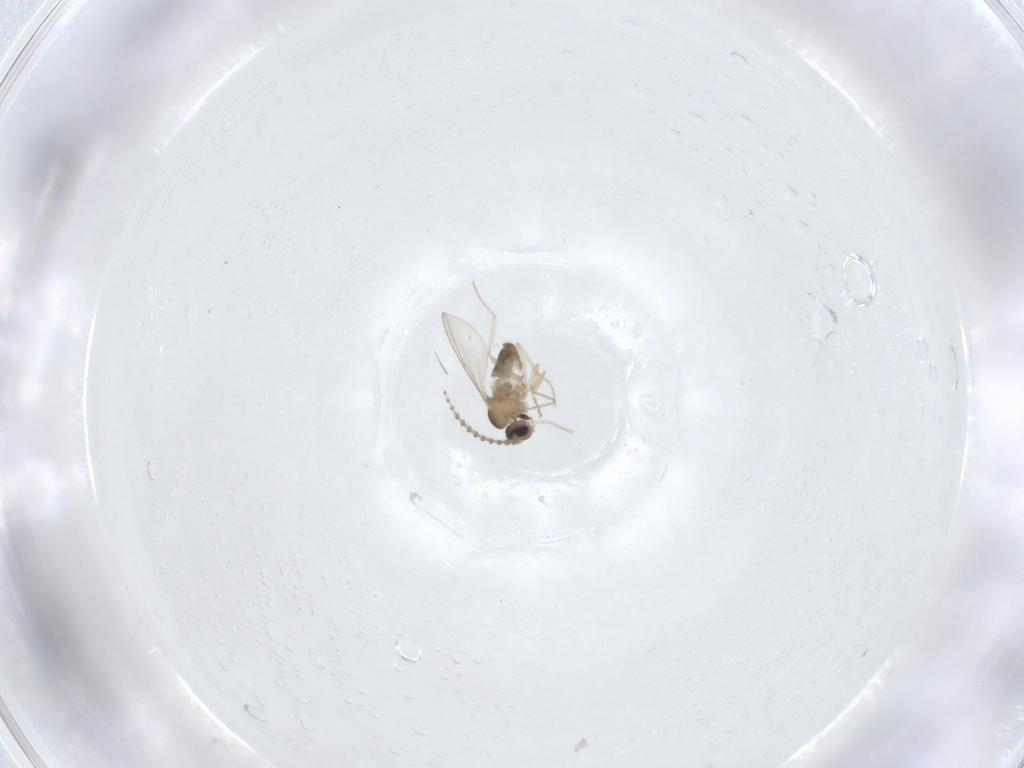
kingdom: Animalia
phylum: Arthropoda
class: Insecta
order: Diptera
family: Cecidomyiidae
